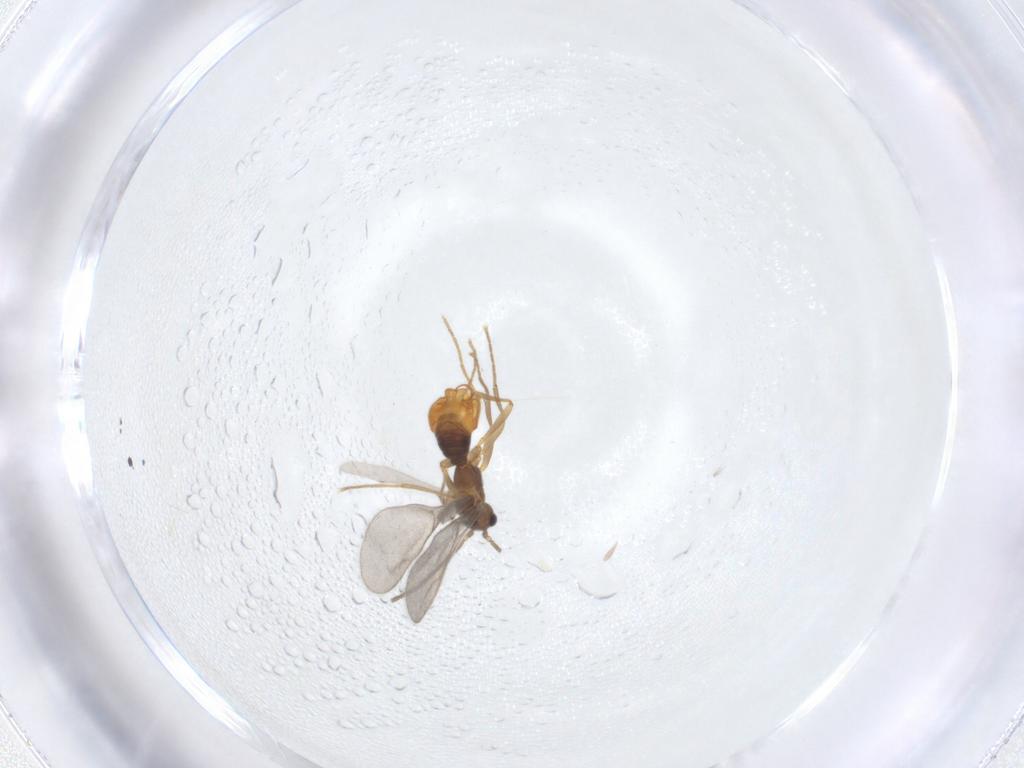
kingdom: Animalia
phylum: Arthropoda
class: Insecta
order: Hymenoptera
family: Formicidae
